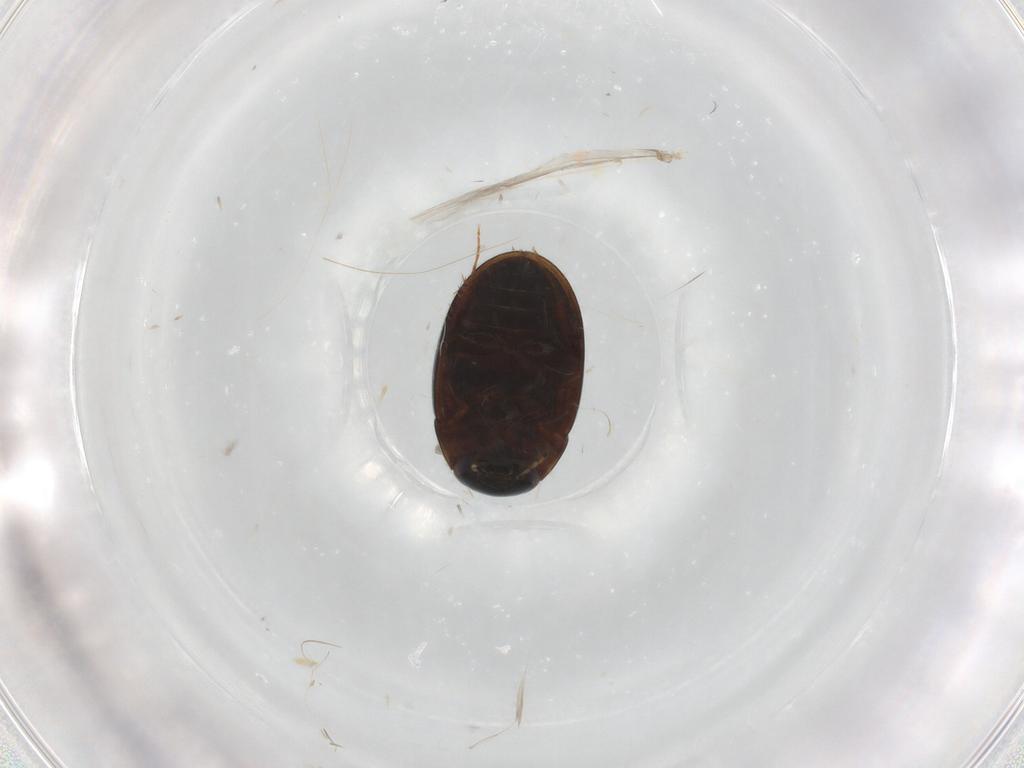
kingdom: Animalia
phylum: Arthropoda
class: Insecta
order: Coleoptera
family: Hydrophilidae
